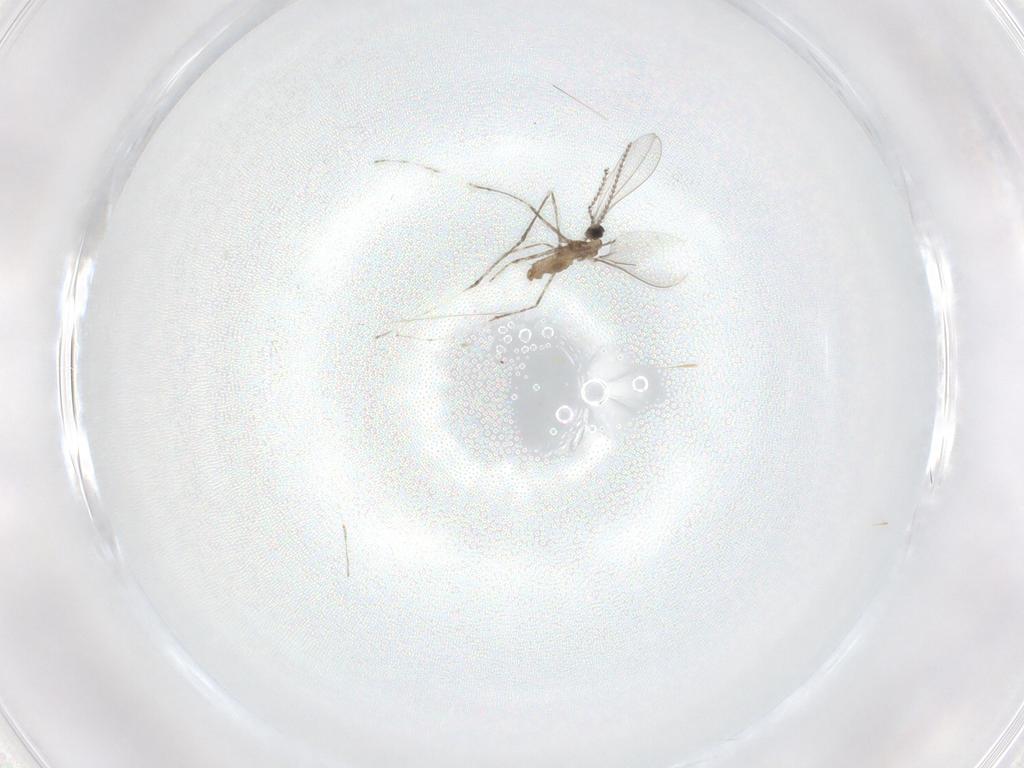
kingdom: Animalia
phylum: Arthropoda
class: Insecta
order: Diptera
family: Cecidomyiidae
